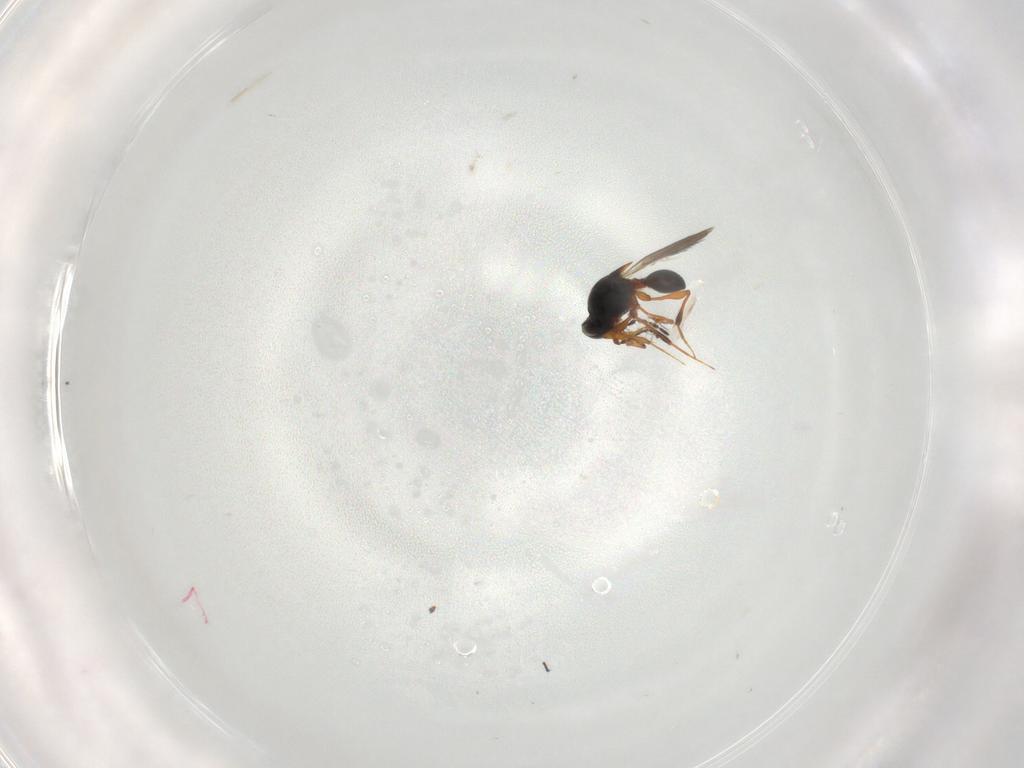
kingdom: Animalia
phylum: Arthropoda
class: Insecta
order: Hymenoptera
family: Platygastridae
